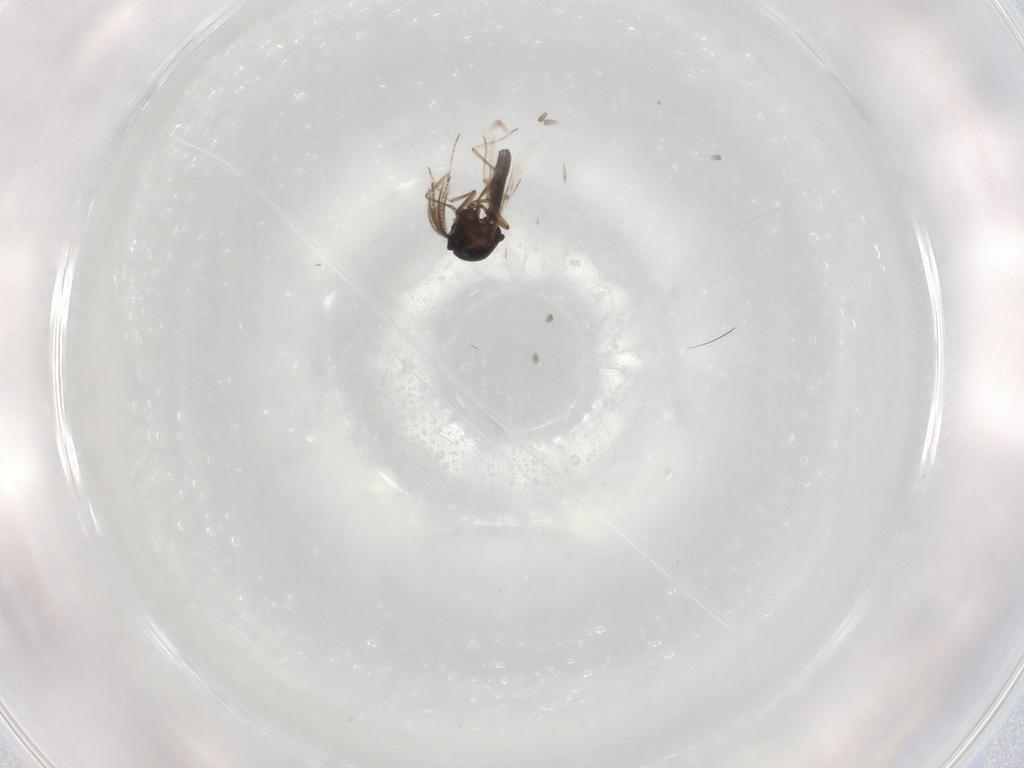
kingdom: Animalia
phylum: Arthropoda
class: Insecta
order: Diptera
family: Ceratopogonidae
